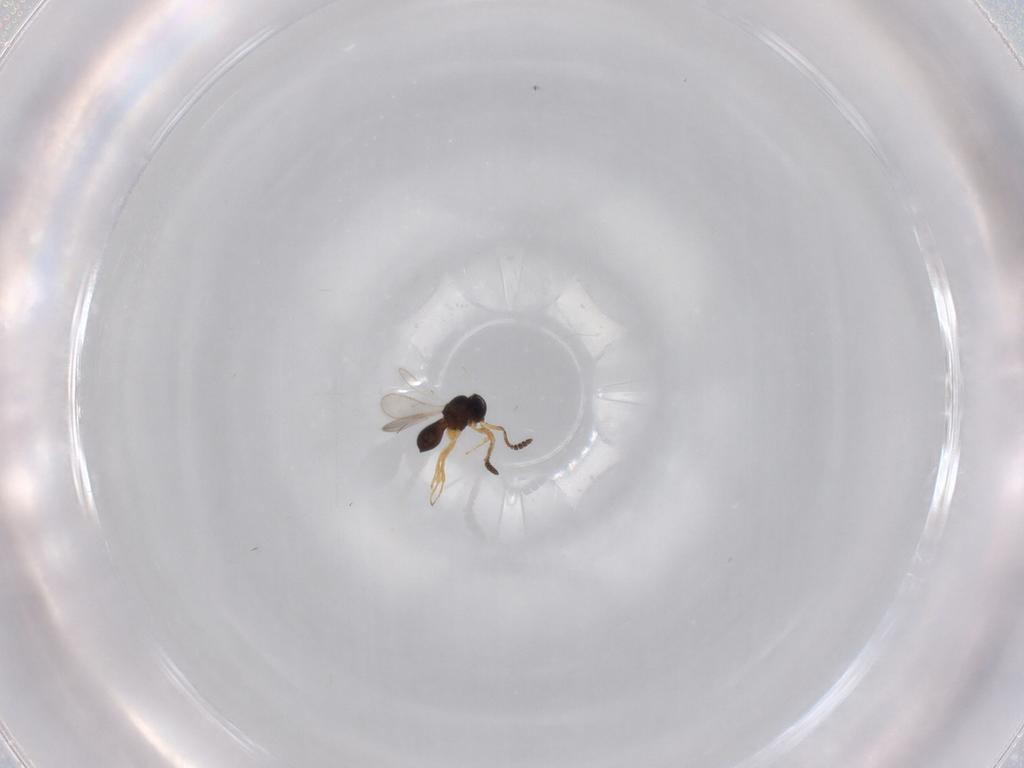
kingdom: Animalia
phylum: Arthropoda
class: Insecta
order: Hymenoptera
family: Scelionidae
